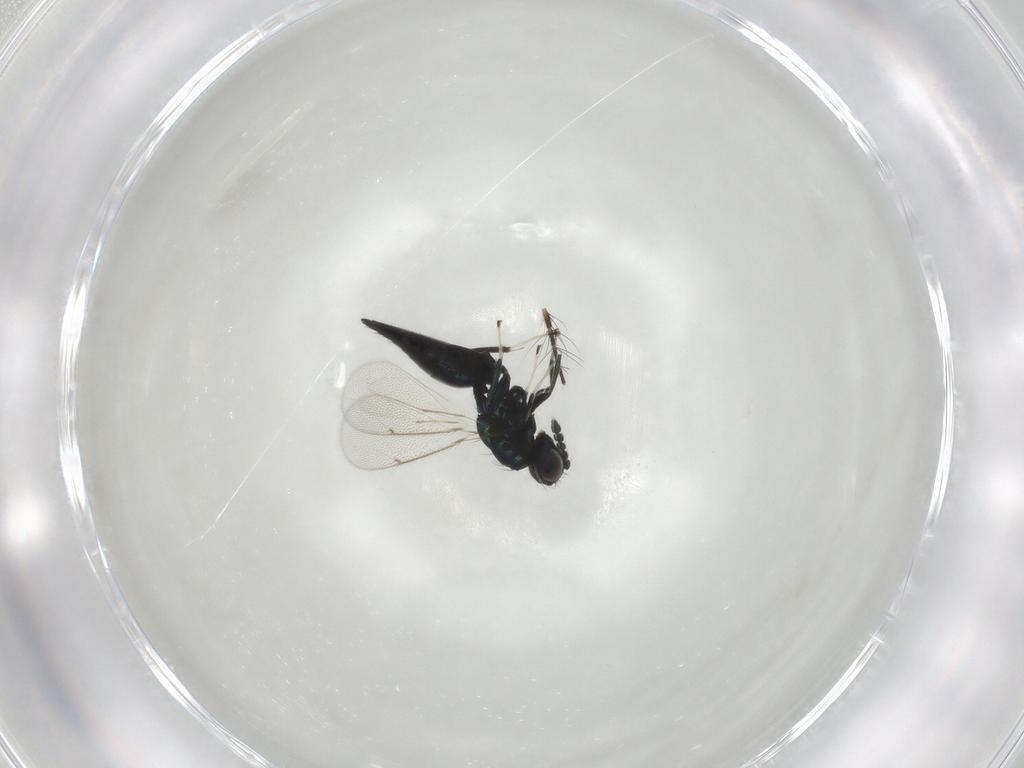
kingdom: Animalia
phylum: Arthropoda
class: Insecta
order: Hymenoptera
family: Eulophidae
